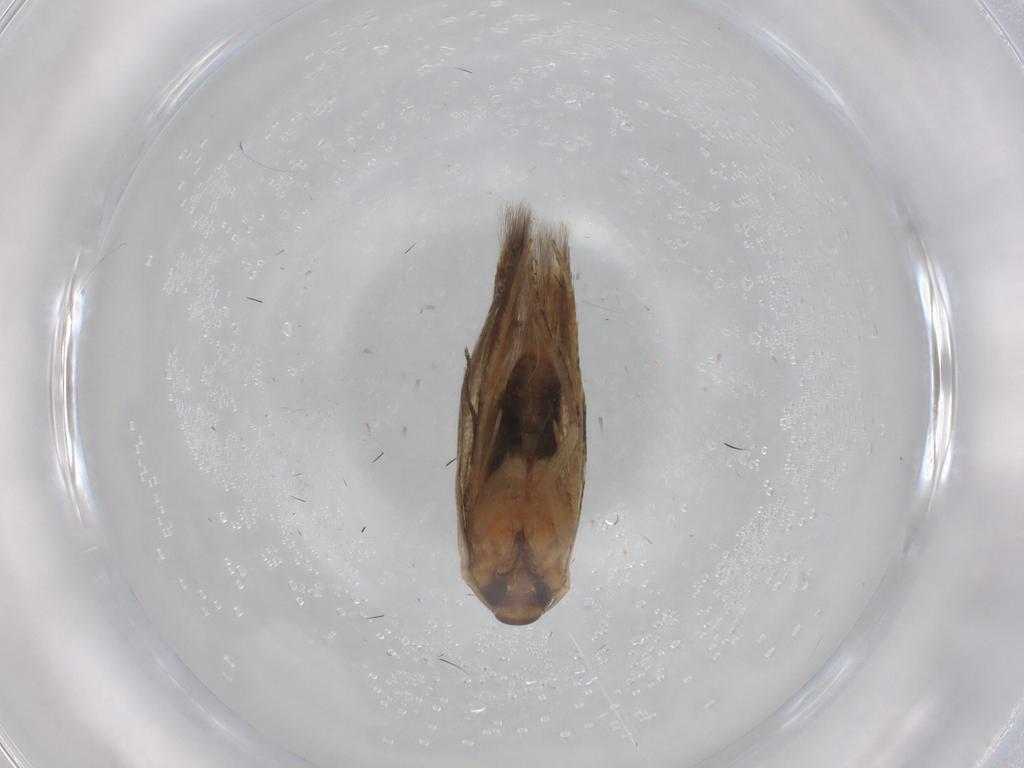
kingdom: Animalia
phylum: Arthropoda
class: Insecta
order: Lepidoptera
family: Cosmopterigidae
